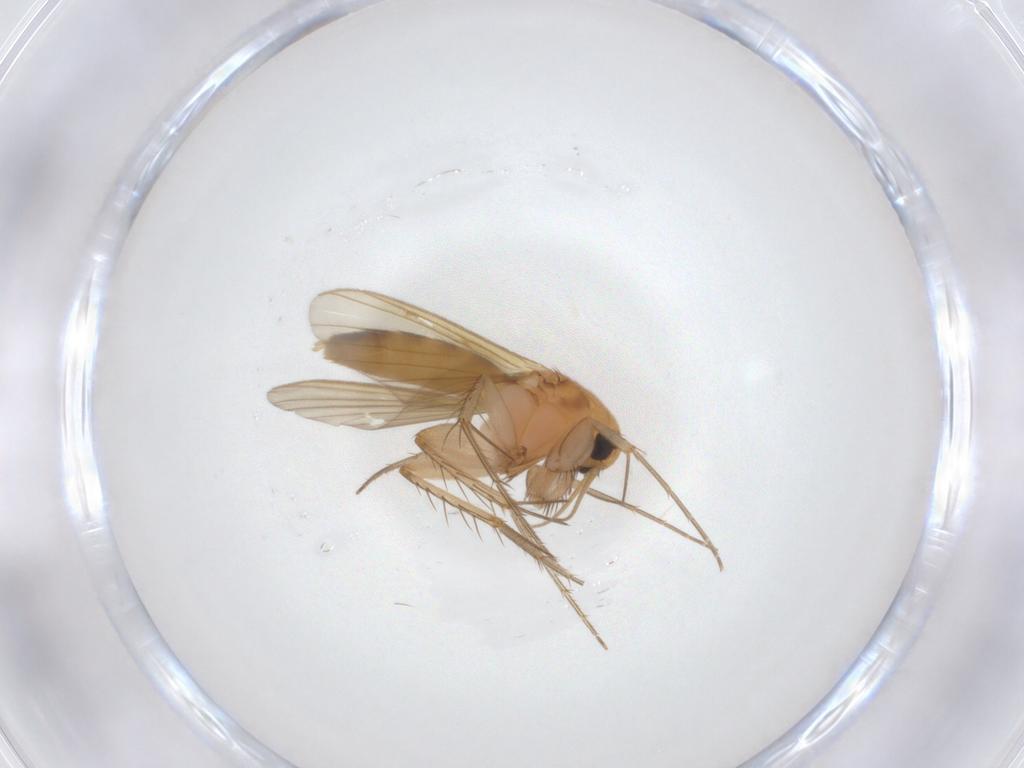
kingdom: Animalia
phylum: Arthropoda
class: Insecta
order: Diptera
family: Mycetophilidae
